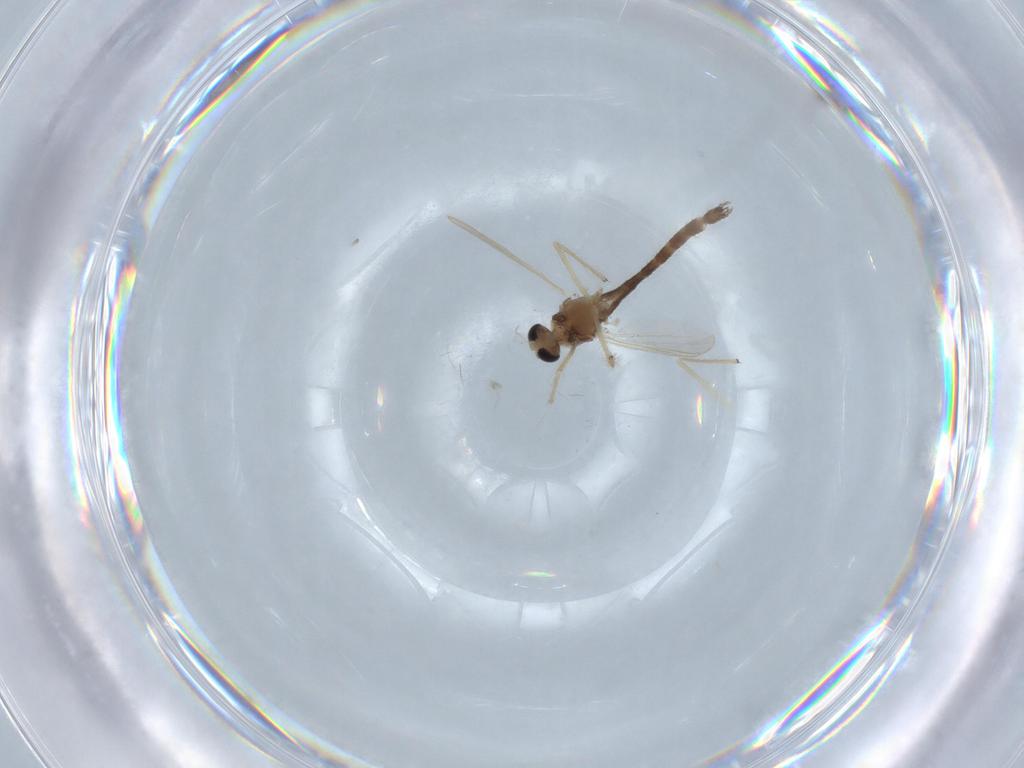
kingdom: Animalia
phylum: Arthropoda
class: Insecta
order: Diptera
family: Chironomidae
